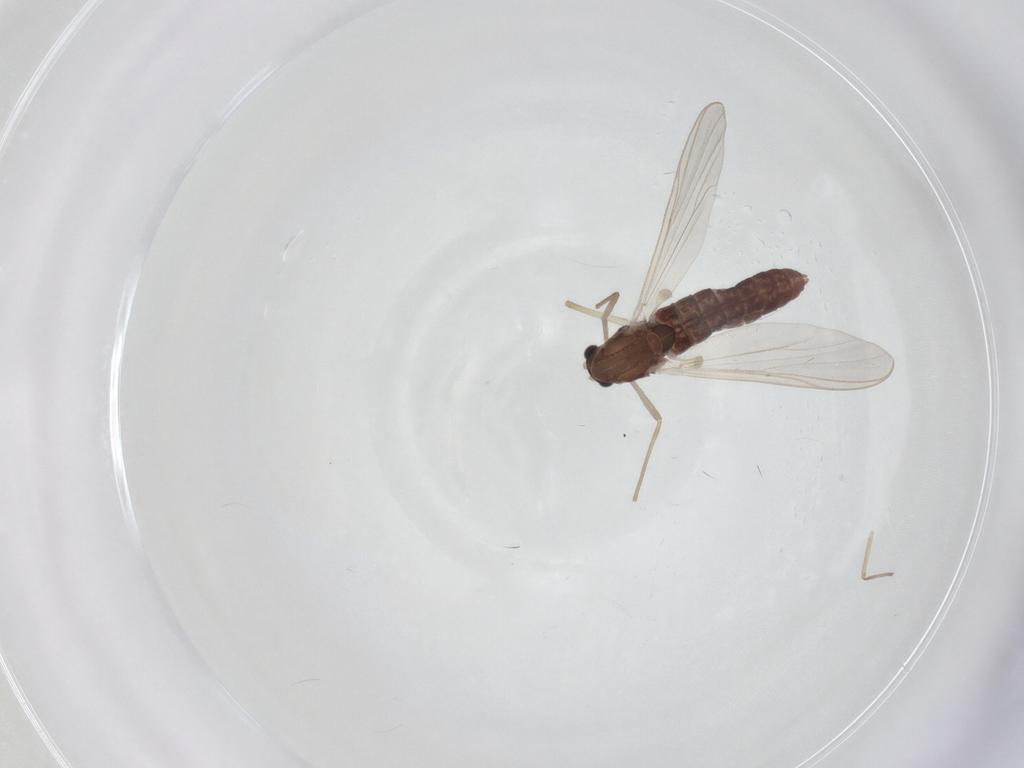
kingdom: Animalia
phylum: Arthropoda
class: Insecta
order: Diptera
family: Chironomidae
